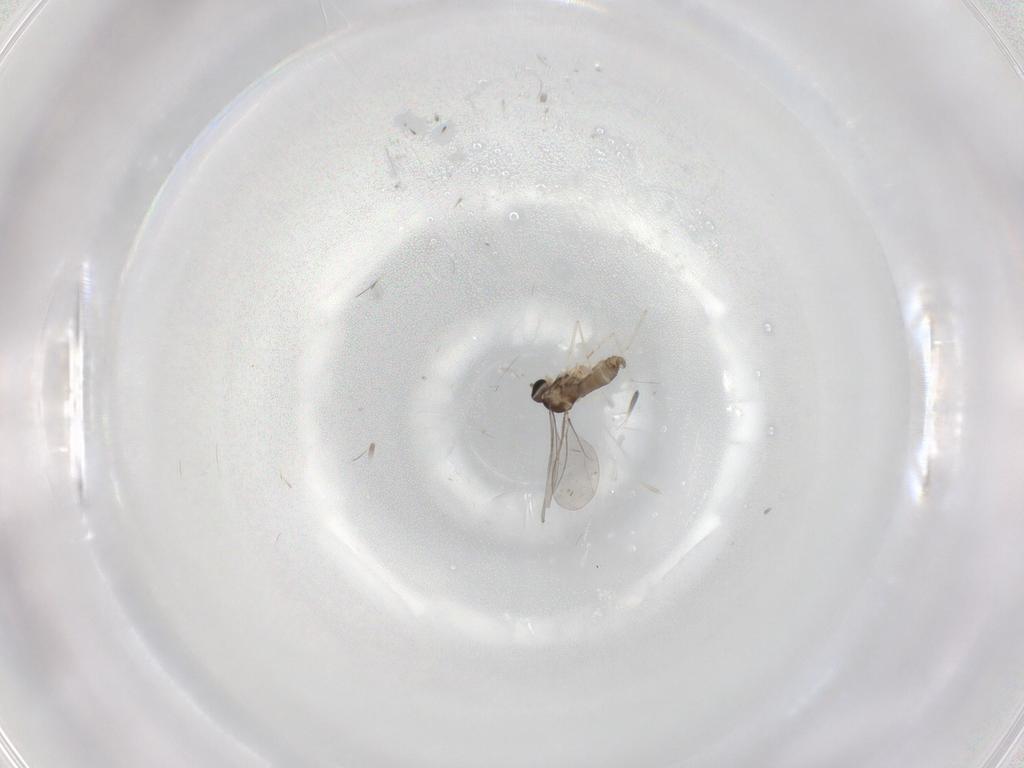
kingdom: Animalia
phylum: Arthropoda
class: Insecta
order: Diptera
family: Cecidomyiidae
